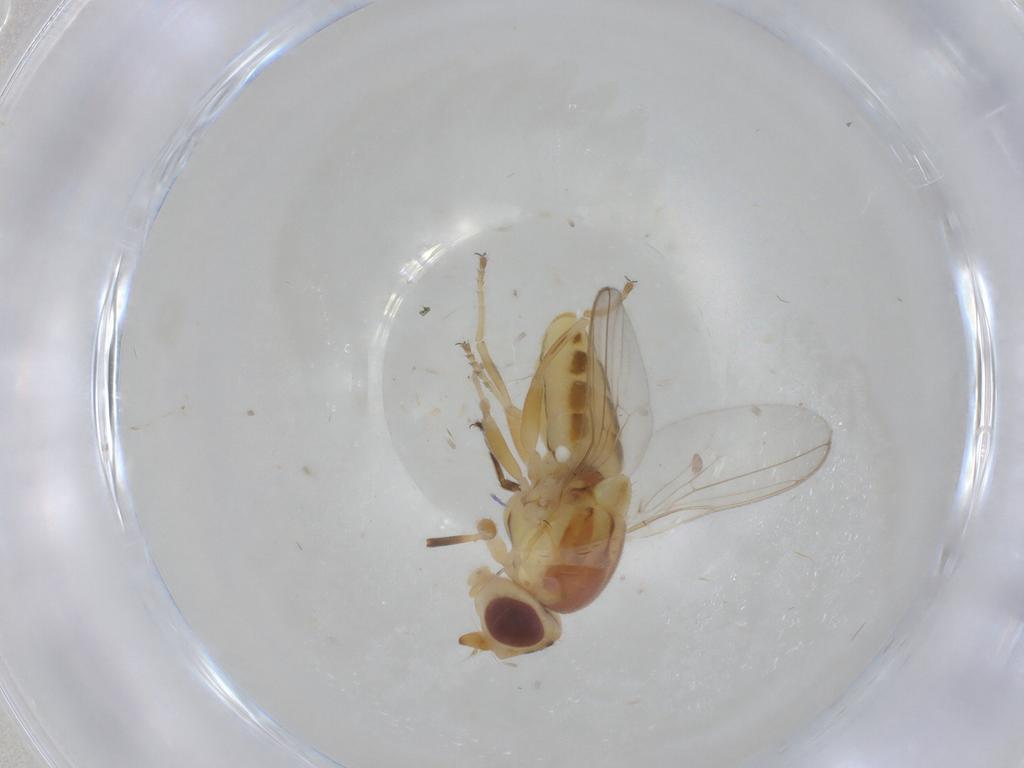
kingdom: Animalia
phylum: Arthropoda
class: Insecta
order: Diptera
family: Chloropidae
